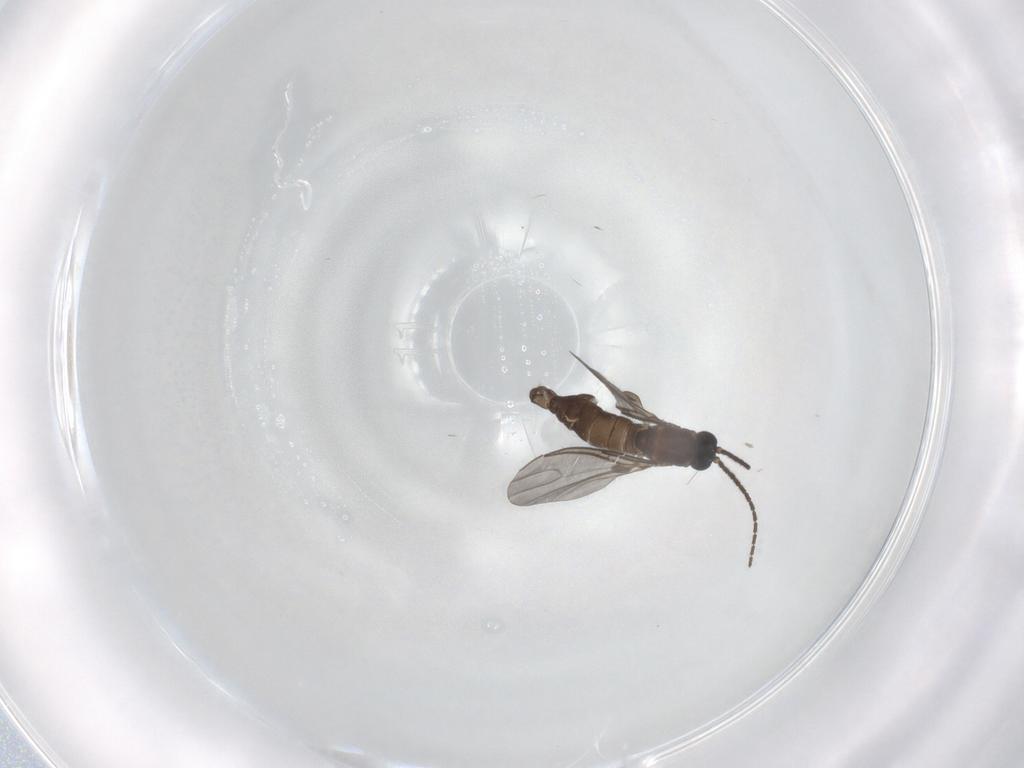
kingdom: Animalia
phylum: Arthropoda
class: Insecta
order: Diptera
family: Sciaridae
